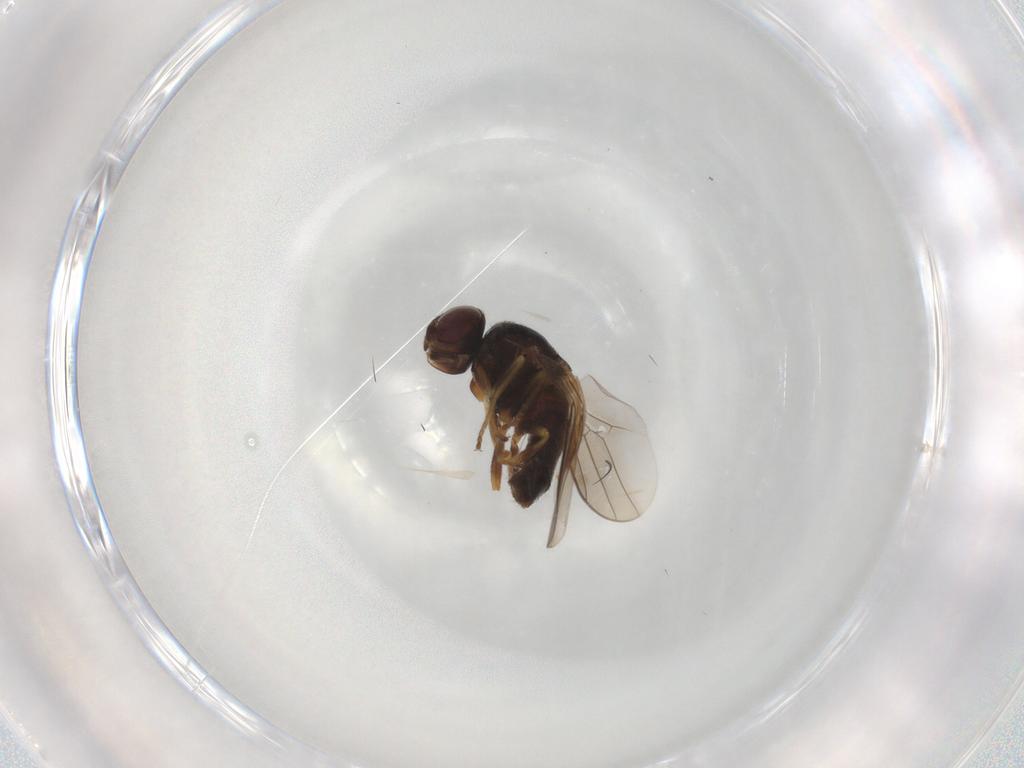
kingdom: Animalia
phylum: Arthropoda
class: Insecta
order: Diptera
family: Chloropidae
